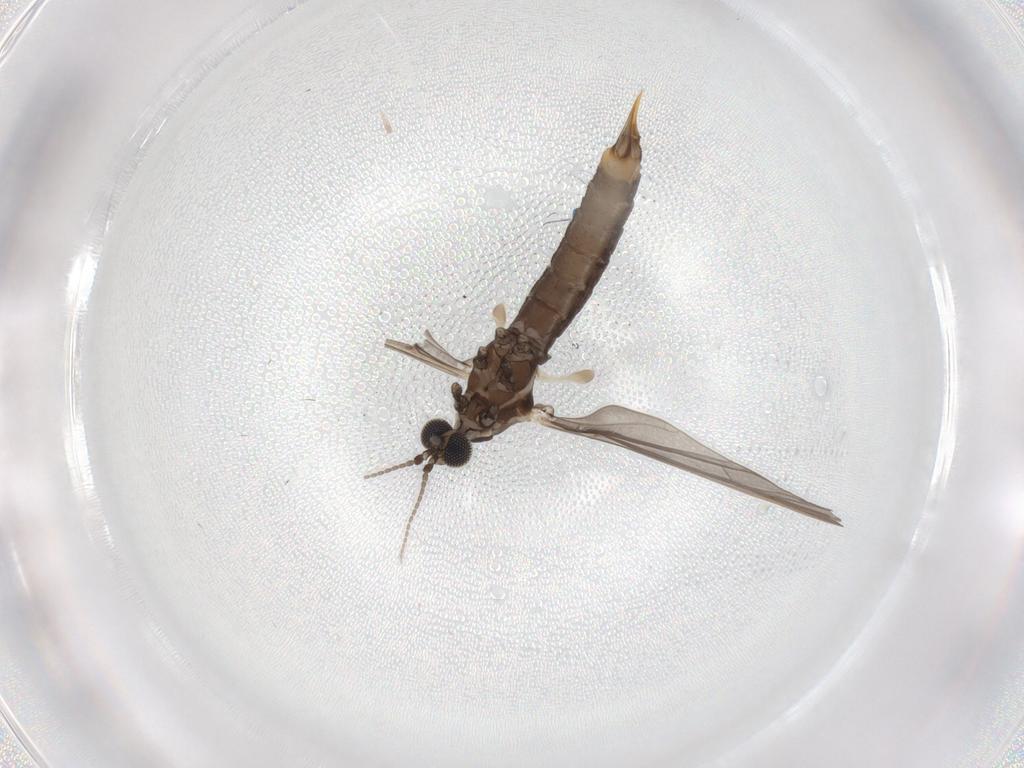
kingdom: Animalia
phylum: Arthropoda
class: Insecta
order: Diptera
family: Limoniidae
